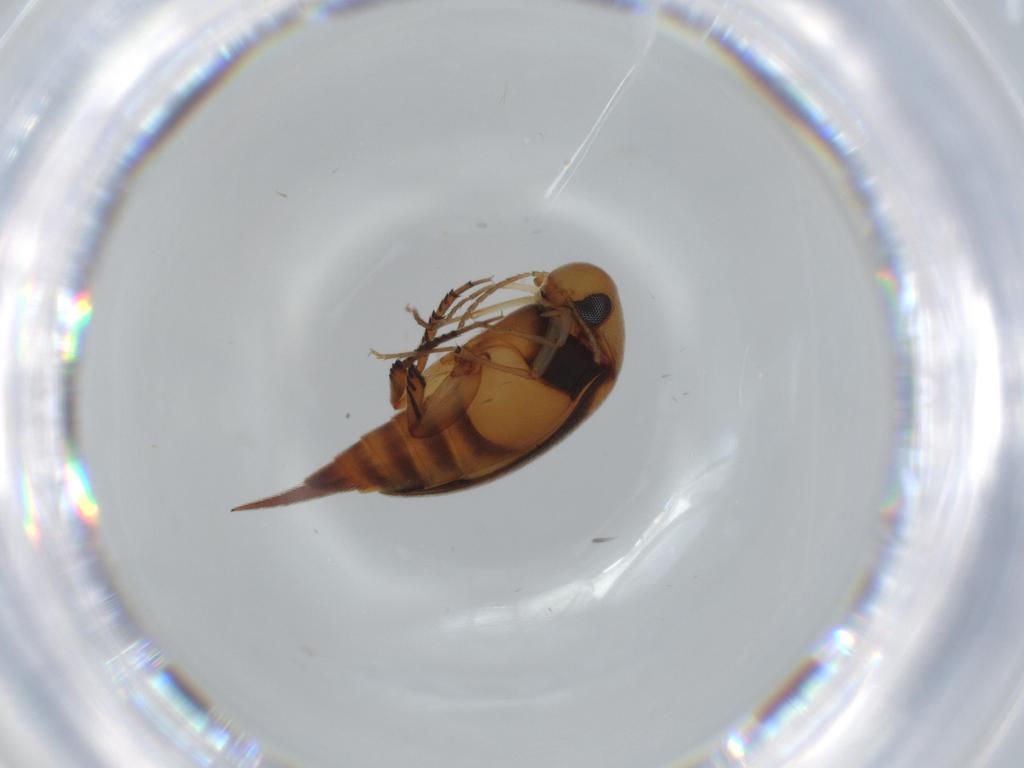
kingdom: Animalia
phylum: Arthropoda
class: Insecta
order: Coleoptera
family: Mordellidae
